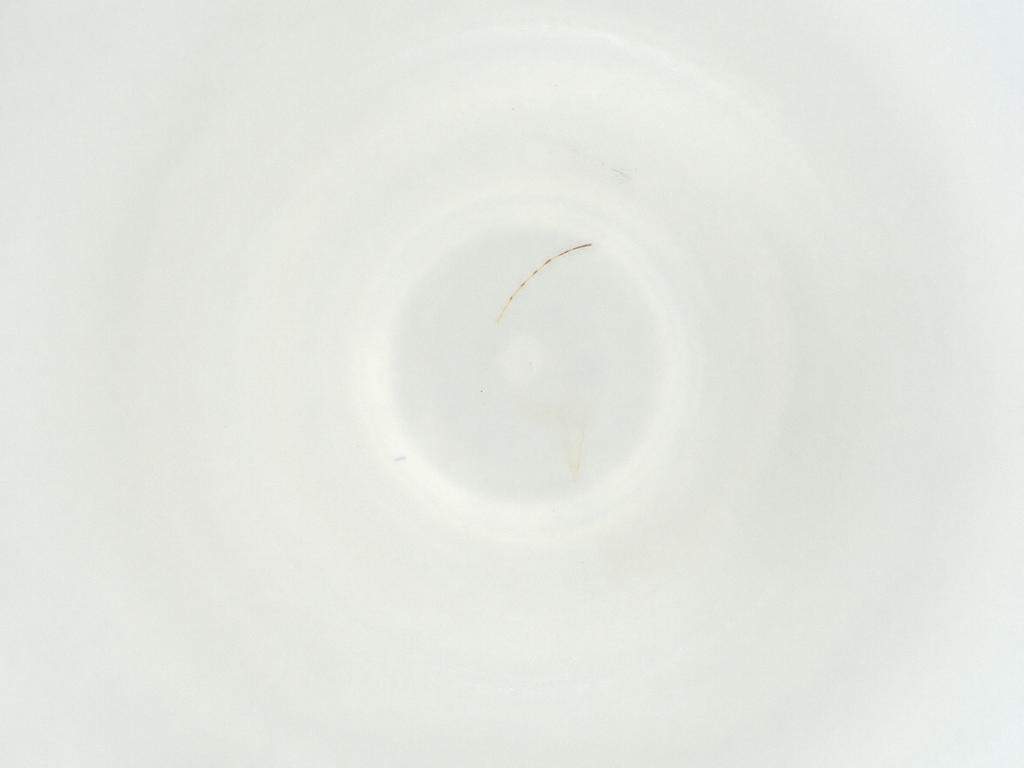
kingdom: Animalia
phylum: Arthropoda
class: Insecta
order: Diptera
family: Cecidomyiidae
